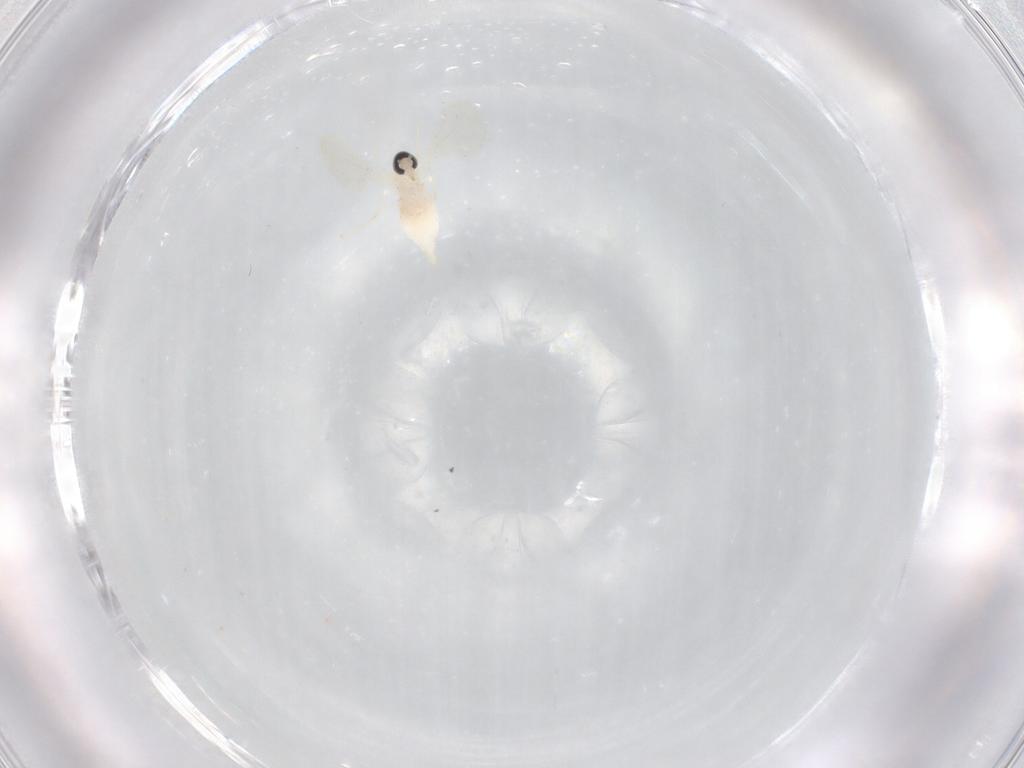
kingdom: Animalia
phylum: Arthropoda
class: Insecta
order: Diptera
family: Cecidomyiidae
